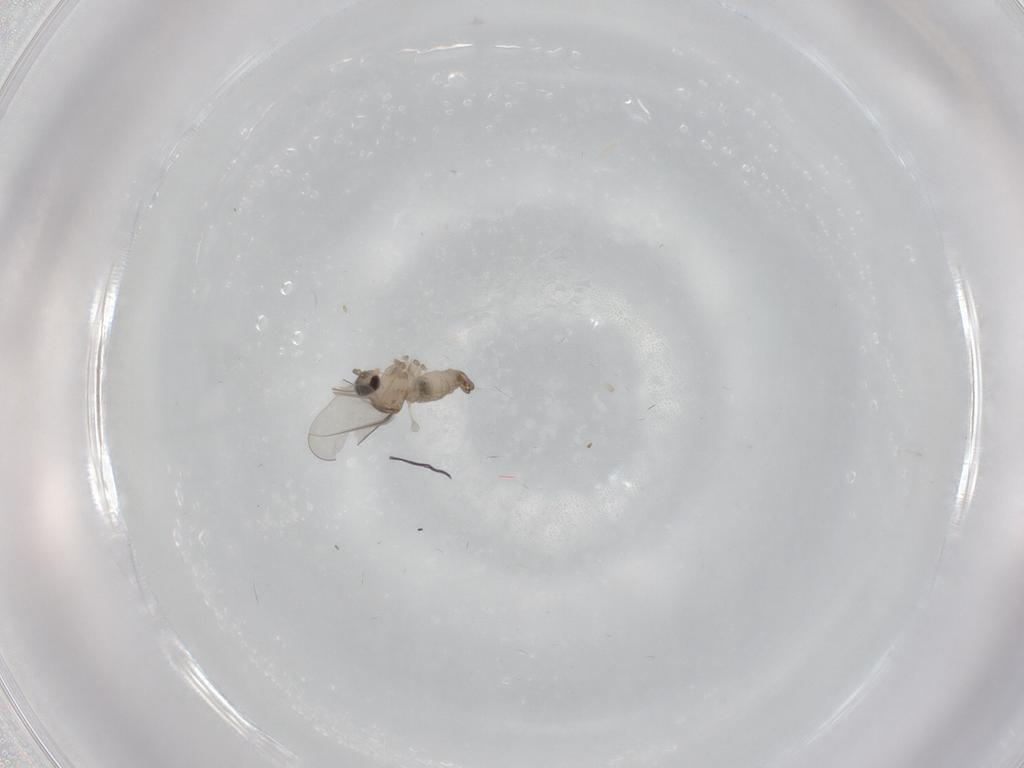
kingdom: Animalia
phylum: Arthropoda
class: Insecta
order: Diptera
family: Cecidomyiidae
